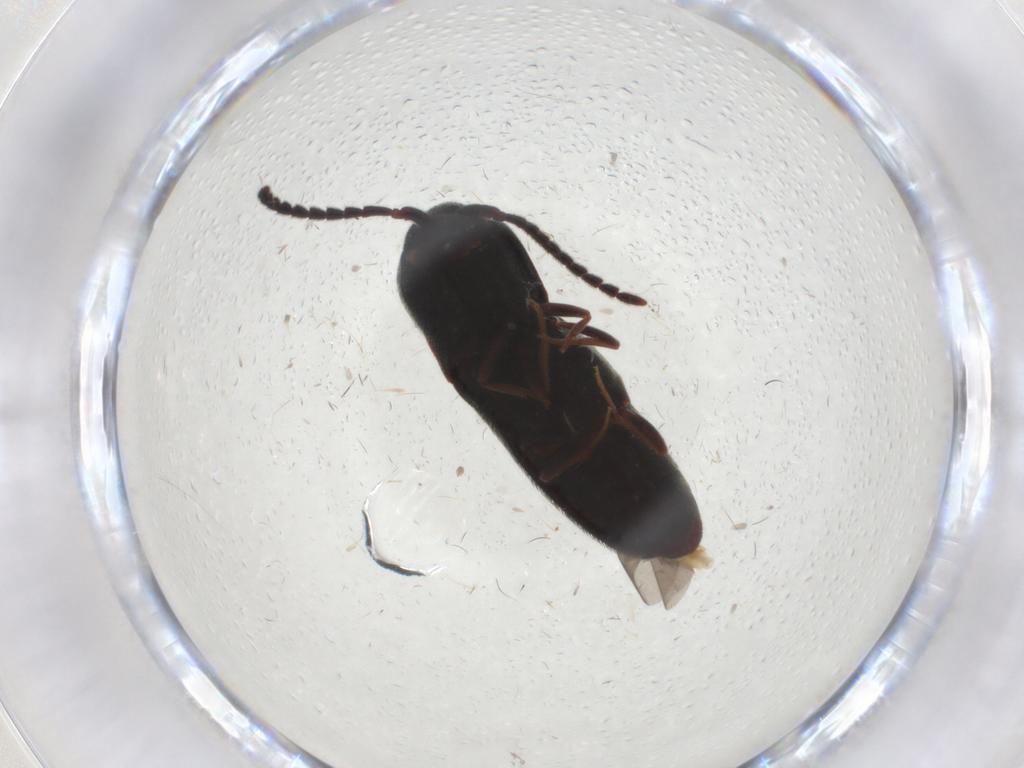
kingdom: Animalia
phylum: Arthropoda
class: Insecta
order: Coleoptera
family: Eucnemidae
